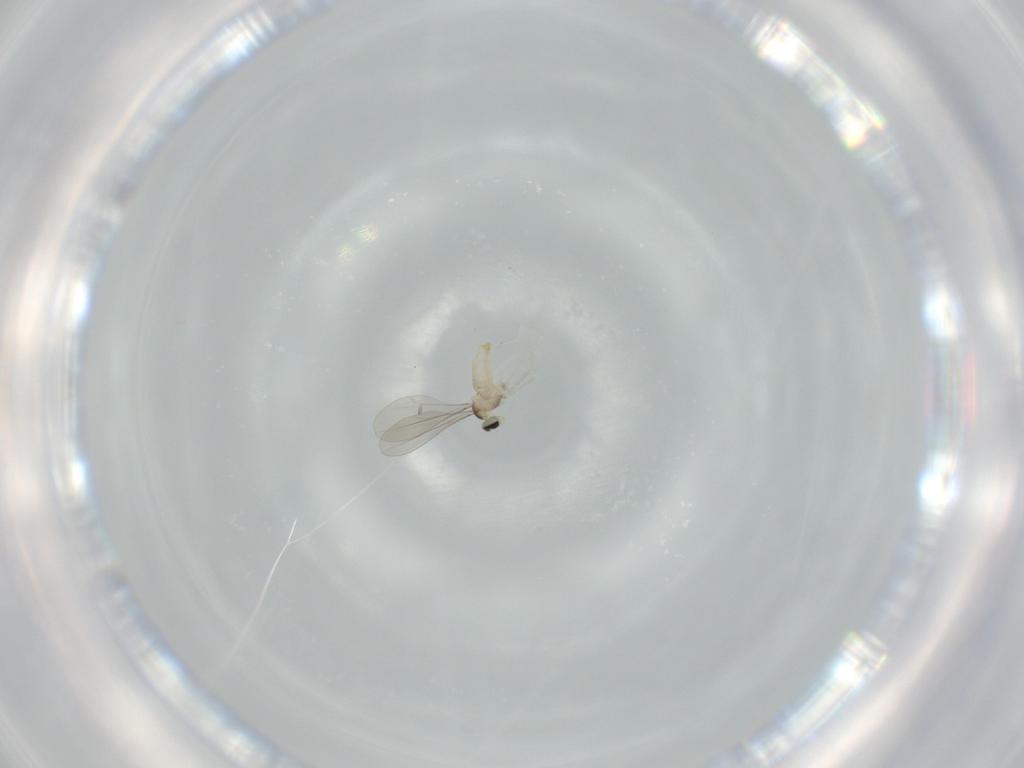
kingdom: Animalia
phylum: Arthropoda
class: Insecta
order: Diptera
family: Cecidomyiidae
